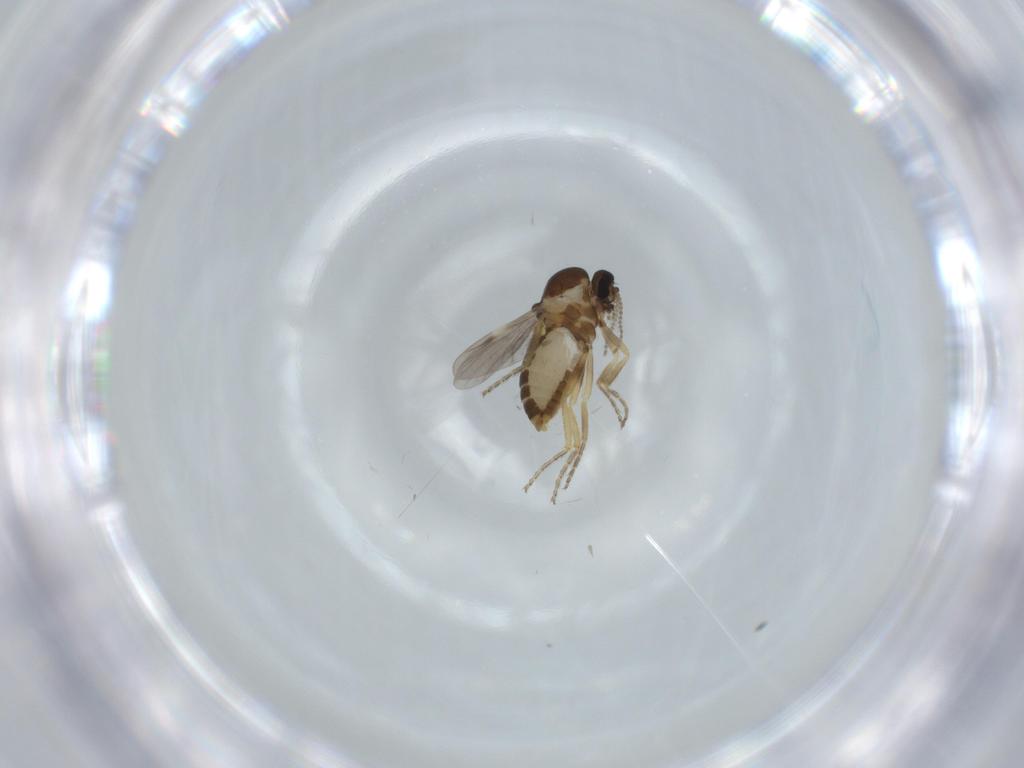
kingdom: Animalia
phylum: Arthropoda
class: Insecta
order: Diptera
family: Ceratopogonidae
